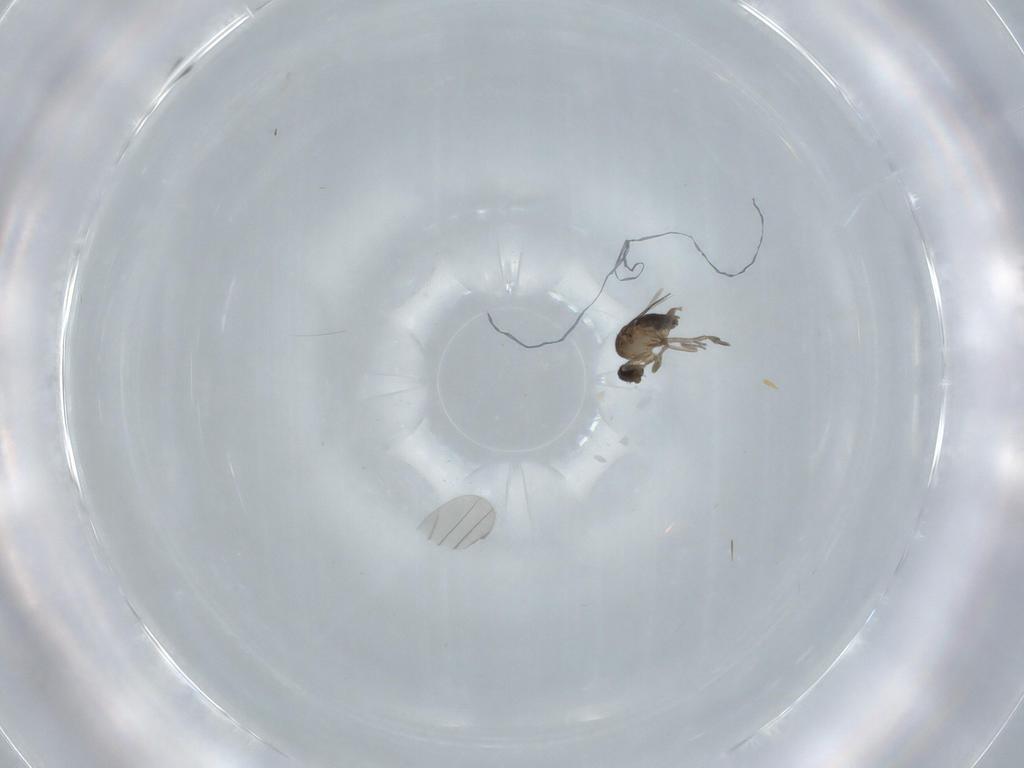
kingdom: Animalia
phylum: Arthropoda
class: Insecta
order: Diptera
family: Phoridae
